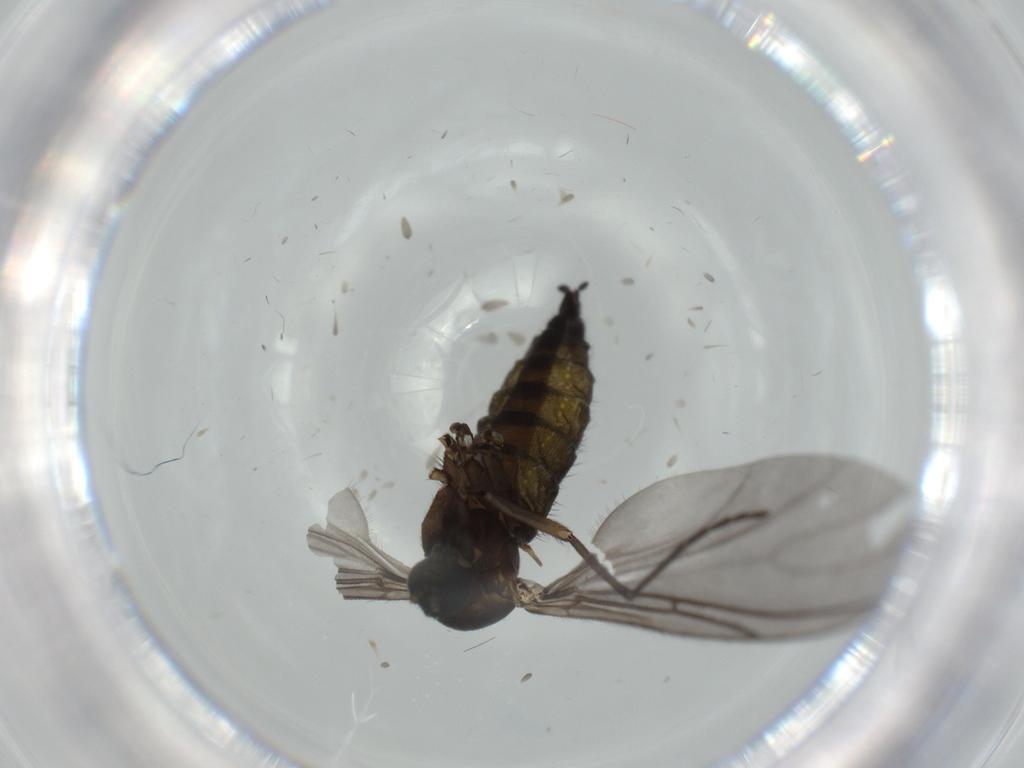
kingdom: Animalia
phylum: Arthropoda
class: Insecta
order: Diptera
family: Sciaridae
